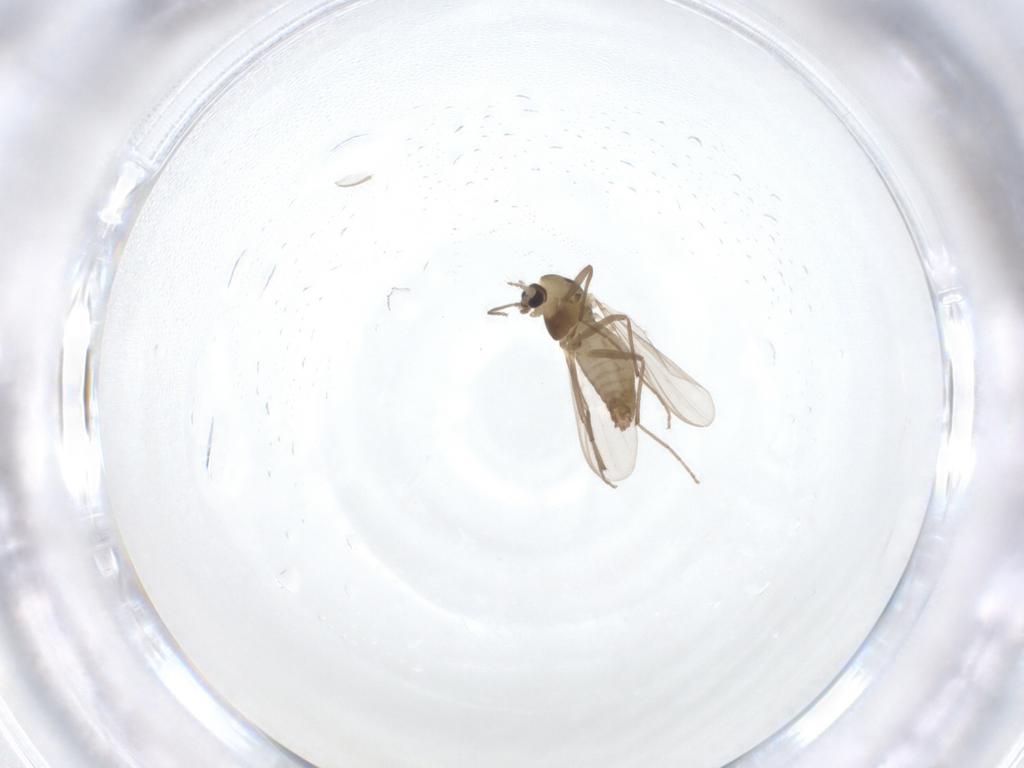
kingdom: Animalia
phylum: Arthropoda
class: Insecta
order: Diptera
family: Chironomidae
